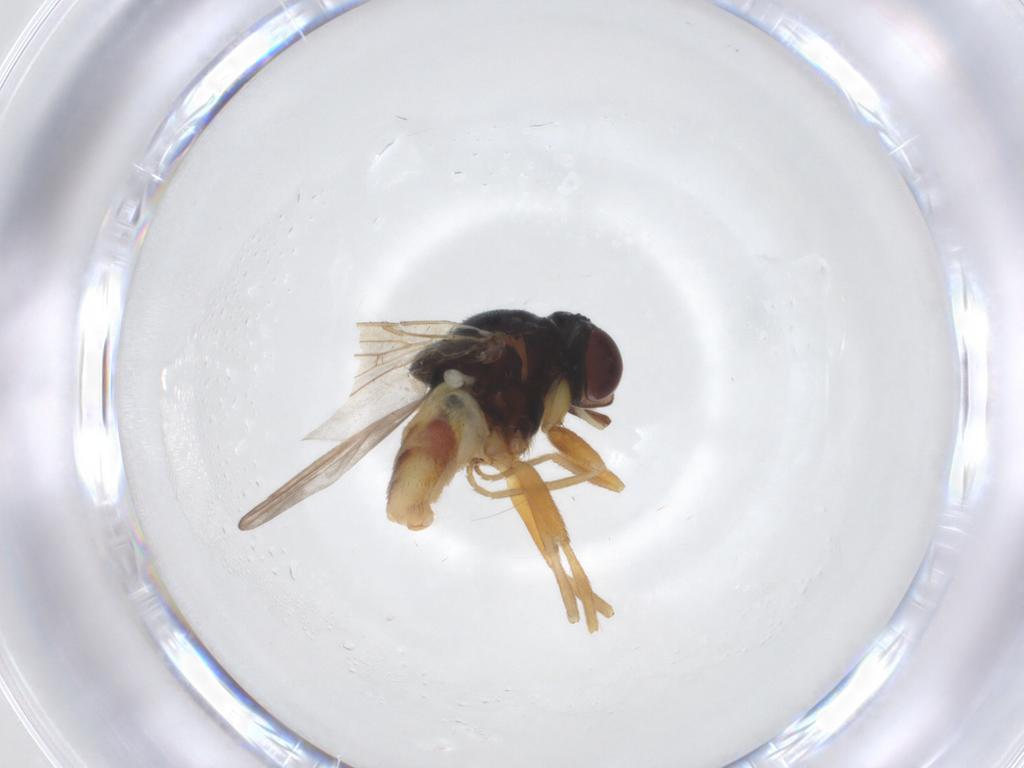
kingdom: Animalia
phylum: Arthropoda
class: Insecta
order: Diptera
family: Chloropidae
